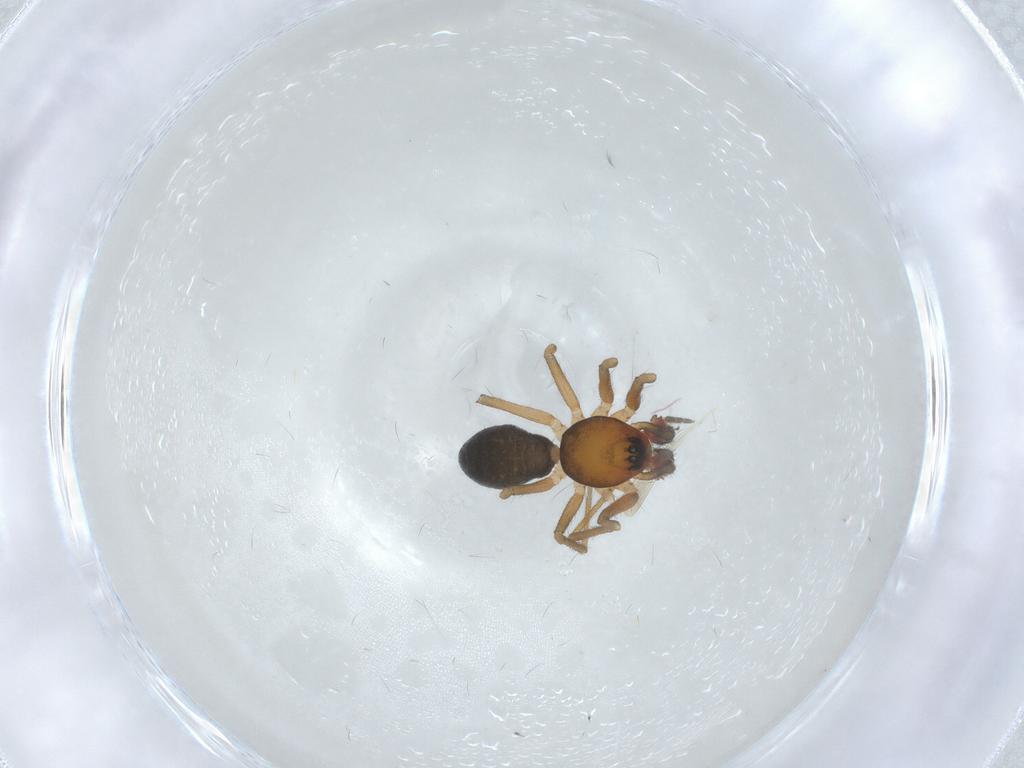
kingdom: Animalia
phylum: Arthropoda
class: Arachnida
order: Araneae
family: Linyphiidae
